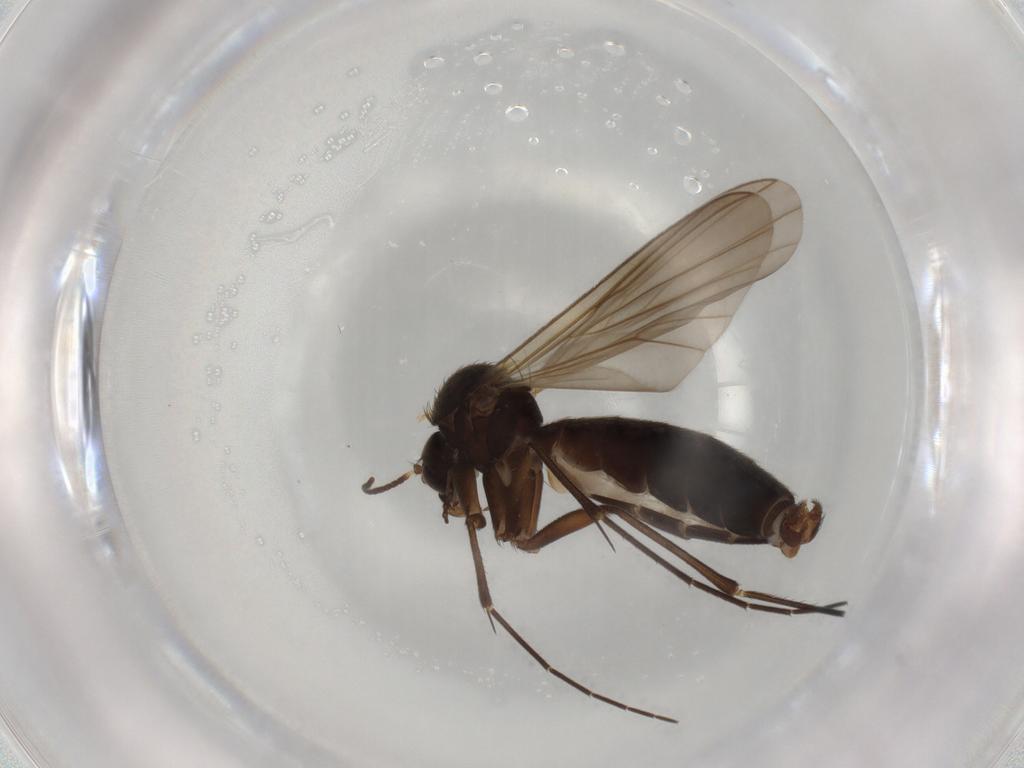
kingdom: Animalia
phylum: Arthropoda
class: Insecta
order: Diptera
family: Mycetophilidae
